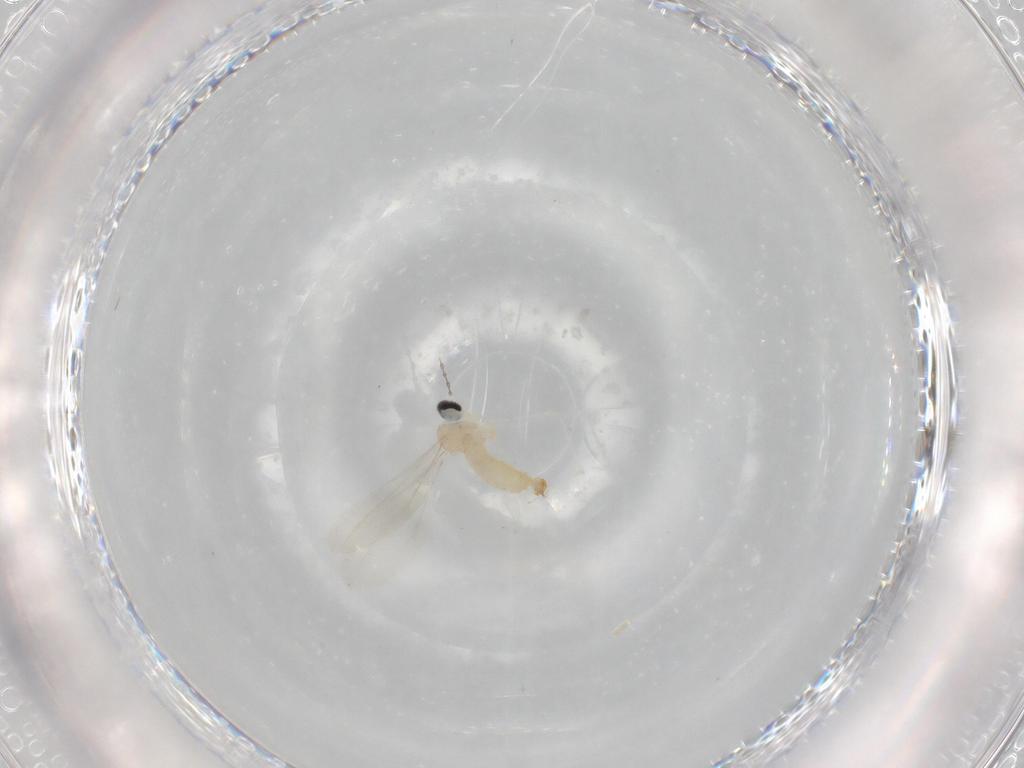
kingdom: Animalia
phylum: Arthropoda
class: Insecta
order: Diptera
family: Cecidomyiidae
